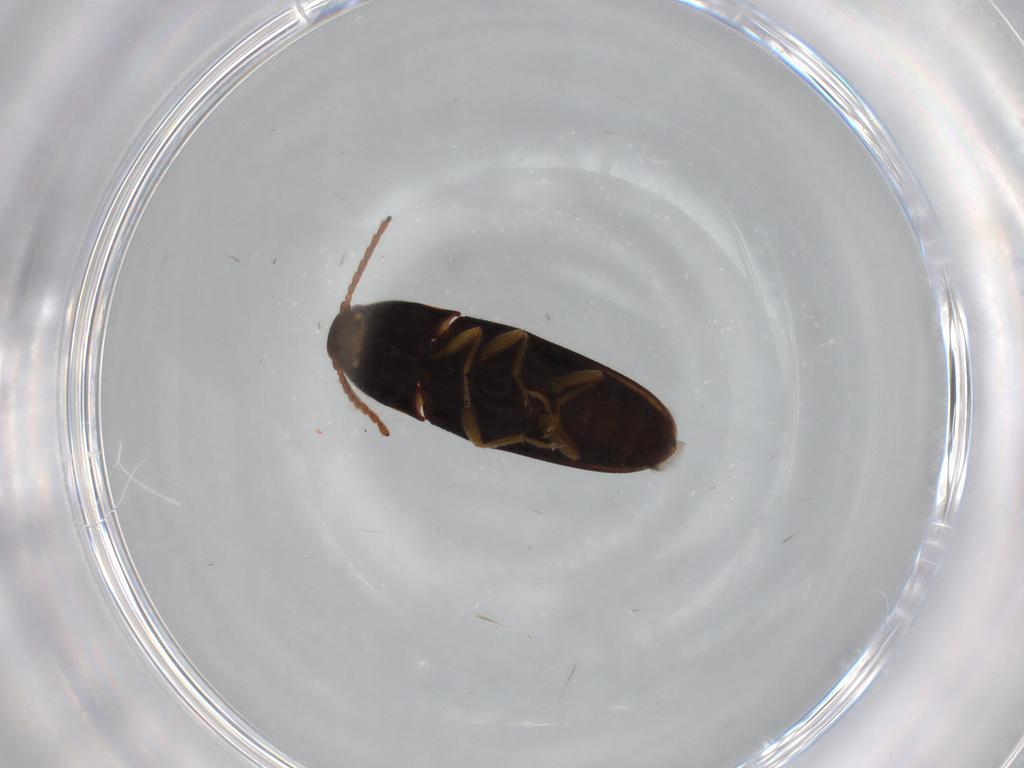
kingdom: Animalia
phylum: Arthropoda
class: Insecta
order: Coleoptera
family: Elateridae
